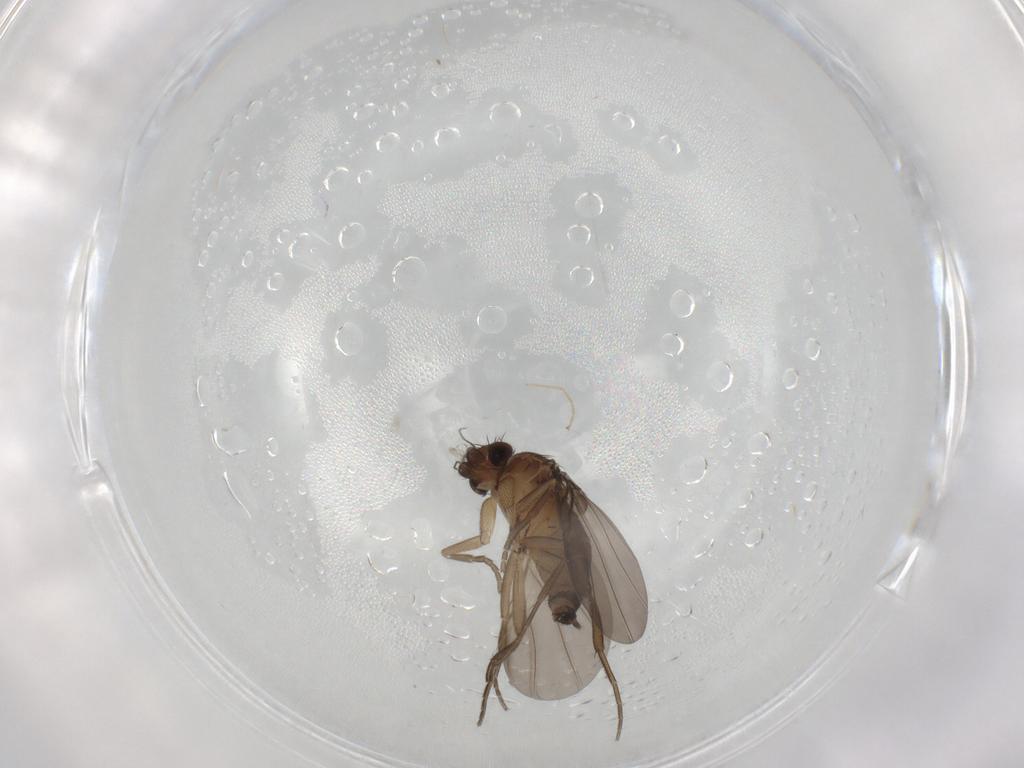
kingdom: Animalia
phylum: Arthropoda
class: Insecta
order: Diptera
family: Phoridae
